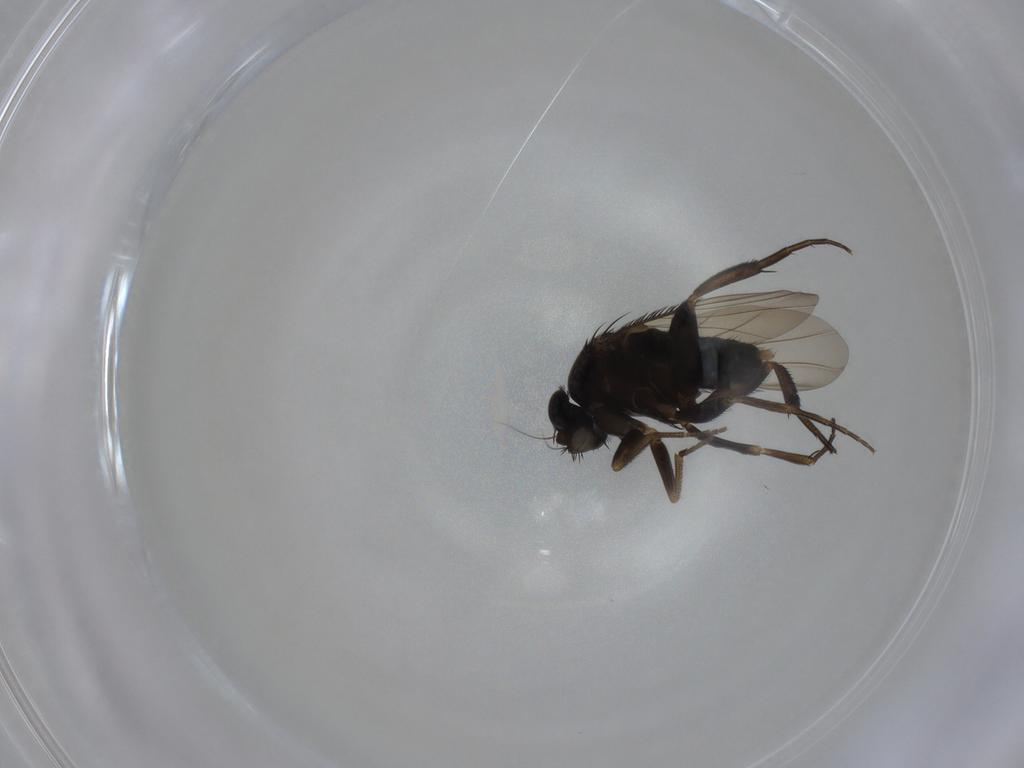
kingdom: Animalia
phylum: Arthropoda
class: Insecta
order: Diptera
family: Phoridae
